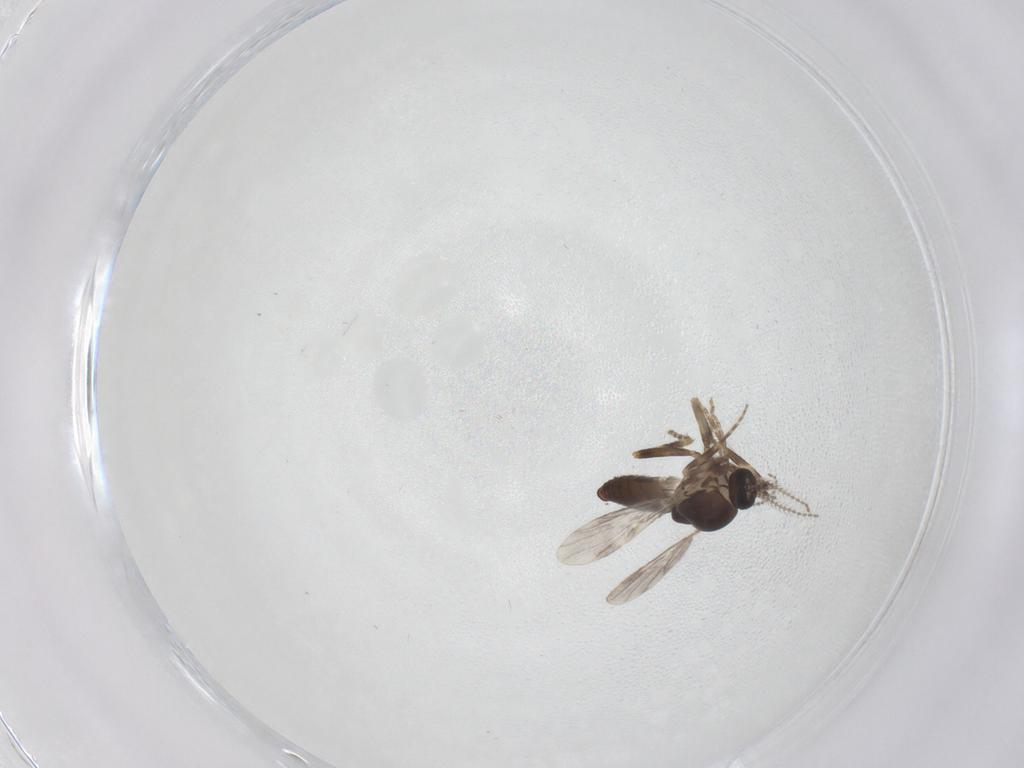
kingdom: Animalia
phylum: Arthropoda
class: Insecta
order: Diptera
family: Ceratopogonidae
